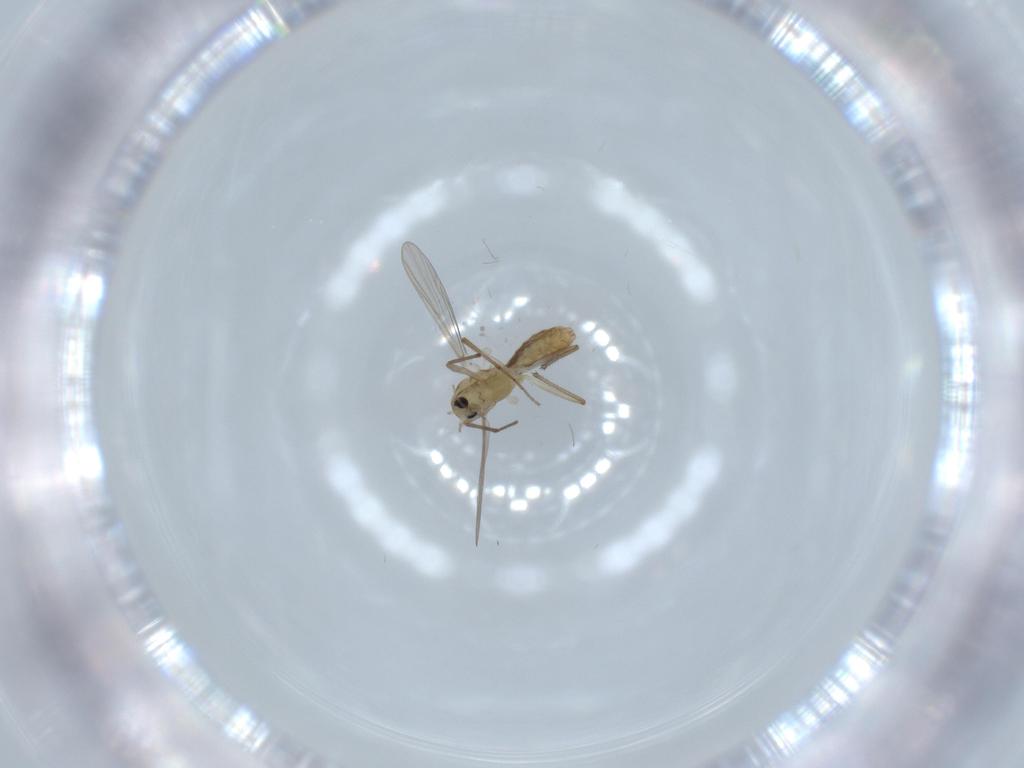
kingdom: Animalia
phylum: Arthropoda
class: Insecta
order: Diptera
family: Chironomidae
